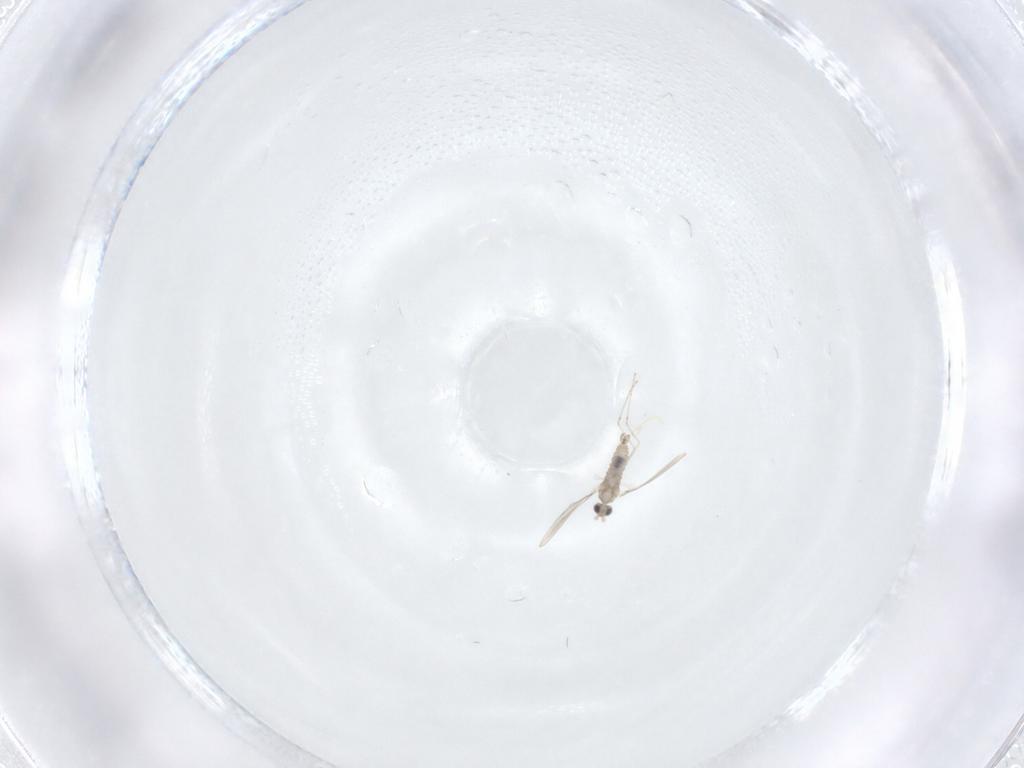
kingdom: Animalia
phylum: Arthropoda
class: Insecta
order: Diptera
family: Cecidomyiidae
